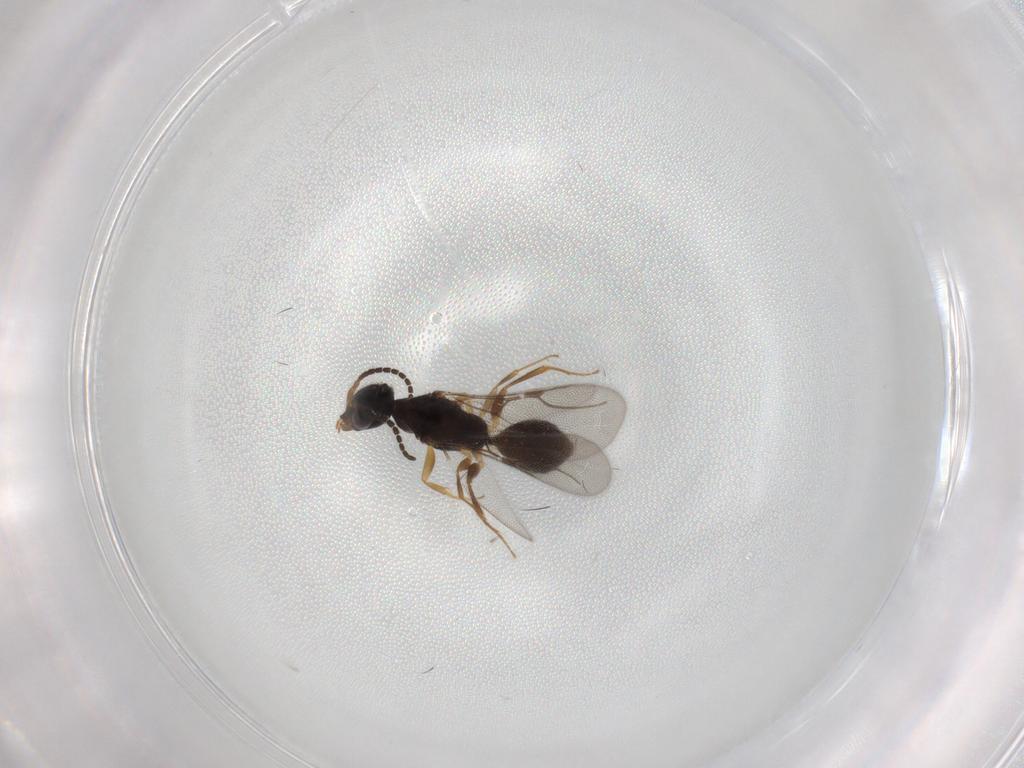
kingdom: Animalia
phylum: Arthropoda
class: Insecta
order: Hymenoptera
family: Bethylidae
